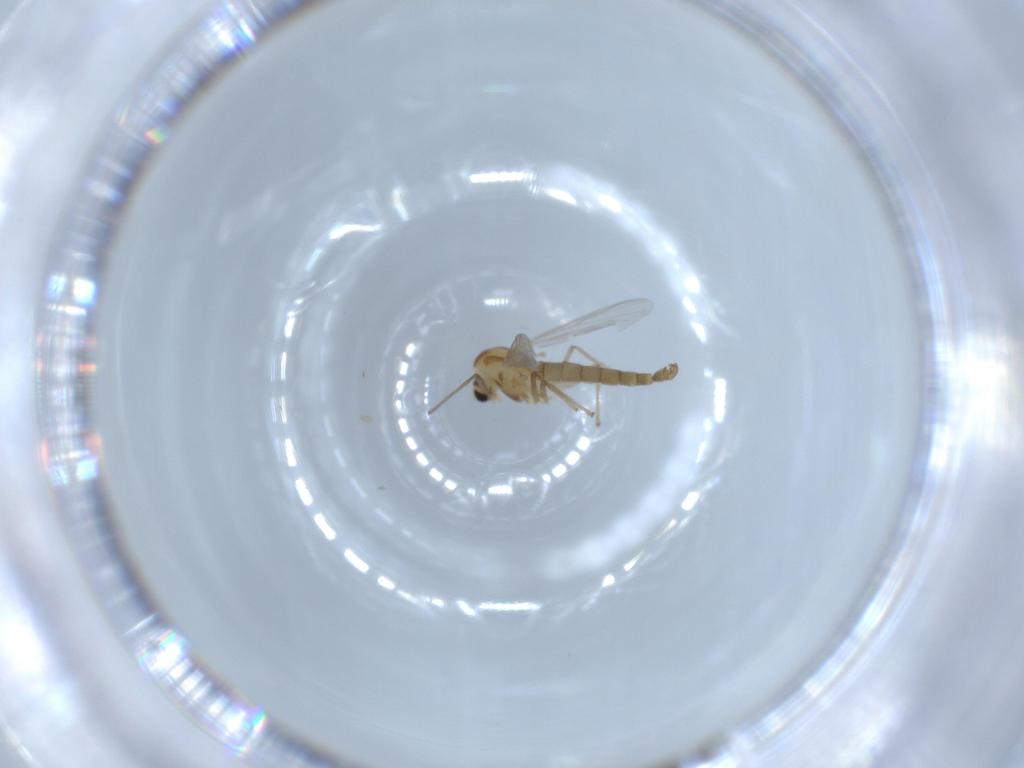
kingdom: Animalia
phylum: Arthropoda
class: Insecta
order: Diptera
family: Chironomidae
